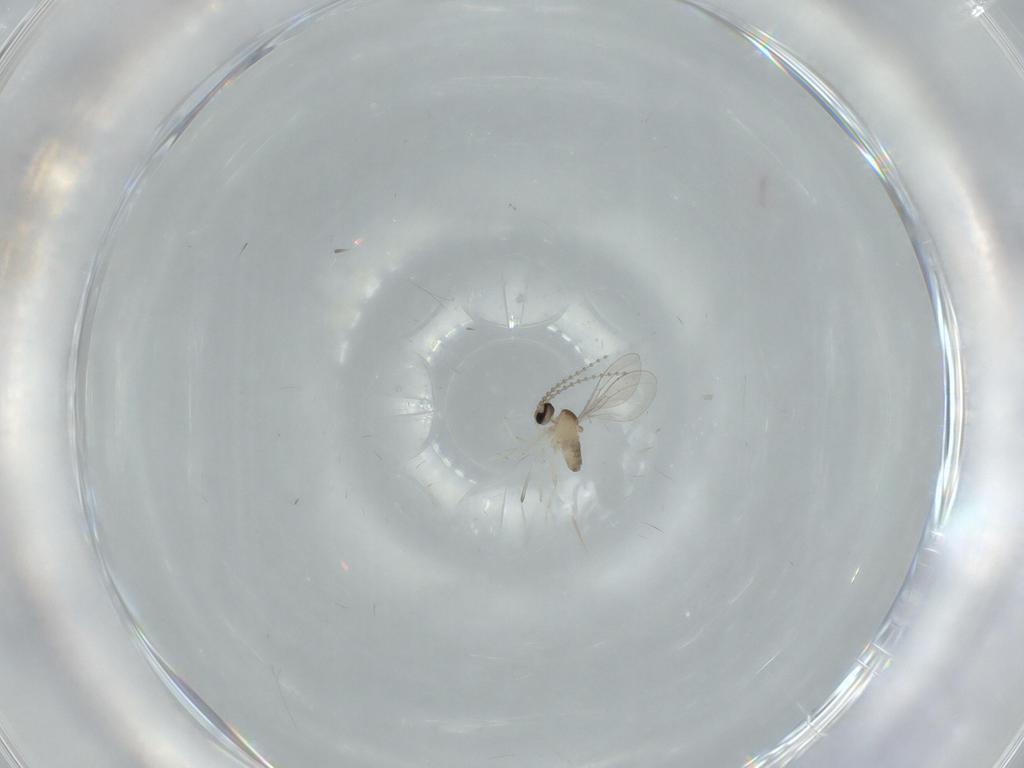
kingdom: Animalia
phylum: Arthropoda
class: Insecta
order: Diptera
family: Cecidomyiidae
